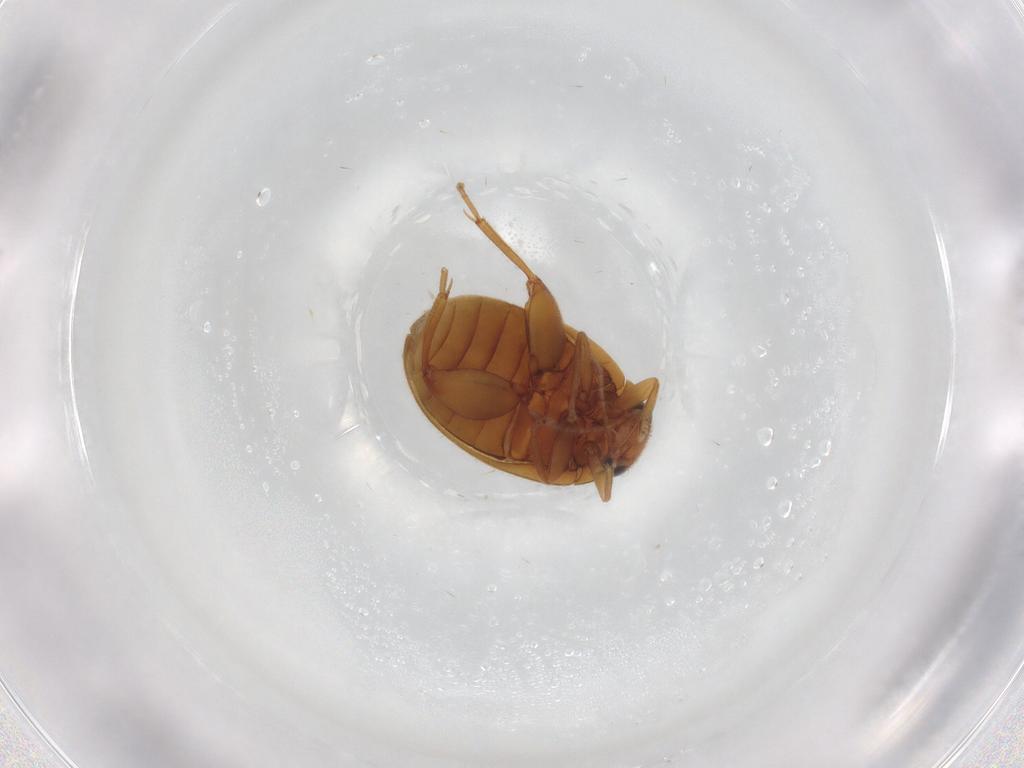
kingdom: Animalia
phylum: Arthropoda
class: Insecta
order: Coleoptera
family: Scirtidae
